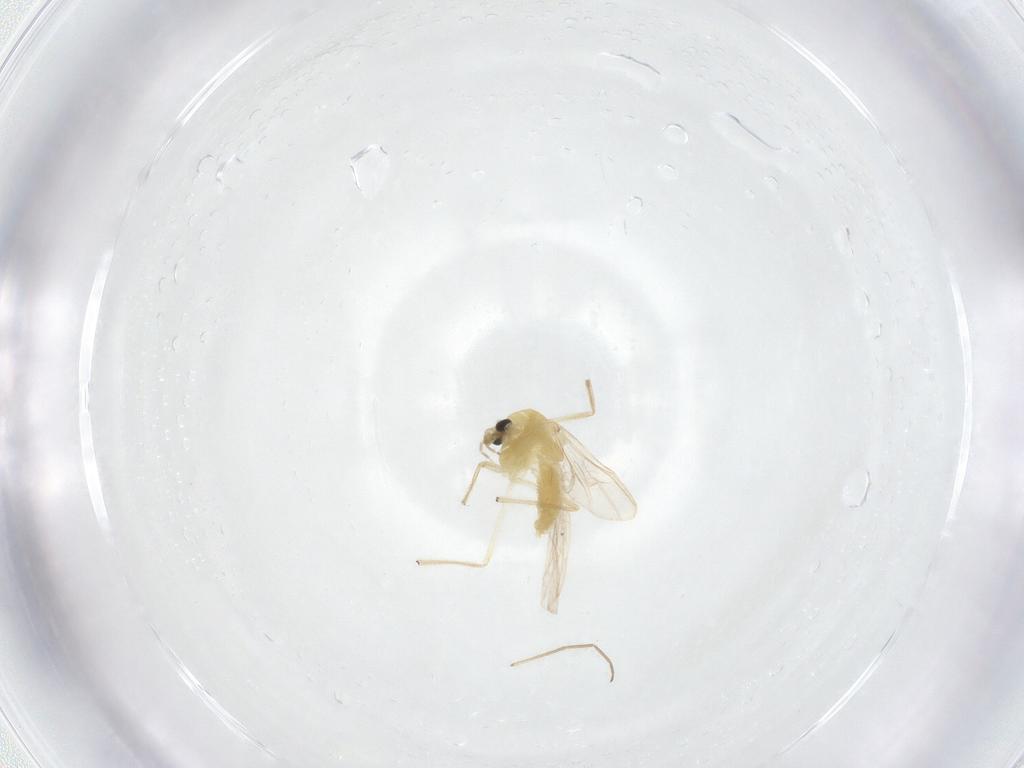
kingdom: Animalia
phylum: Arthropoda
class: Insecta
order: Diptera
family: Chironomidae
